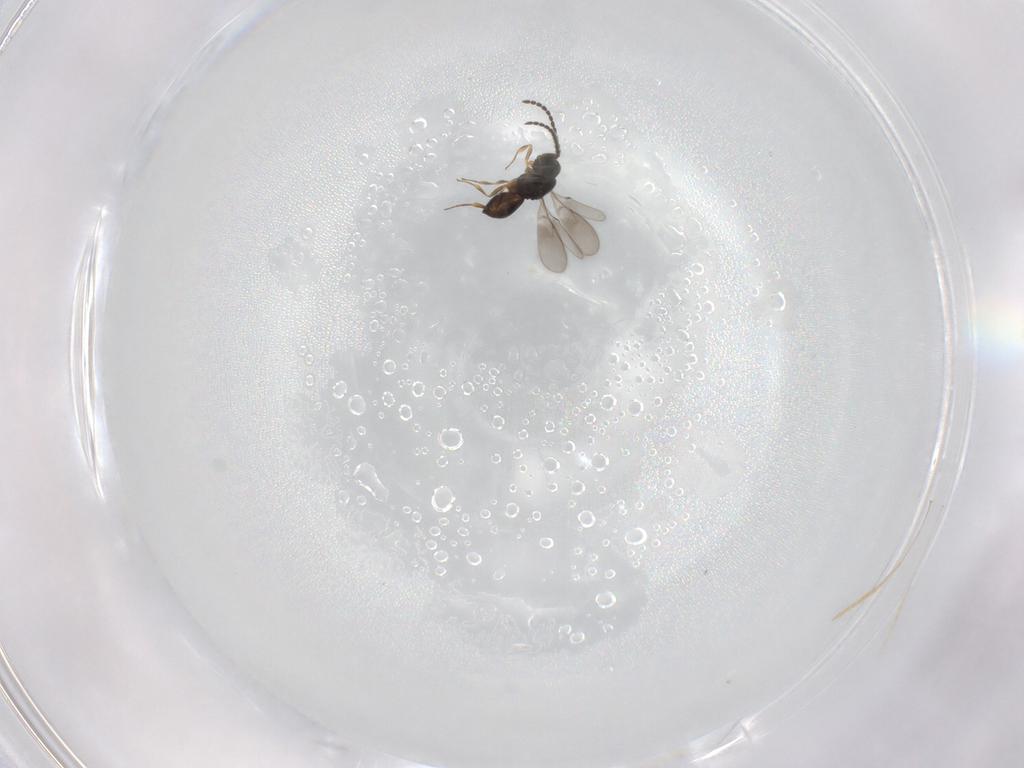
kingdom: Animalia
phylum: Arthropoda
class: Insecta
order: Hymenoptera
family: Scelionidae
